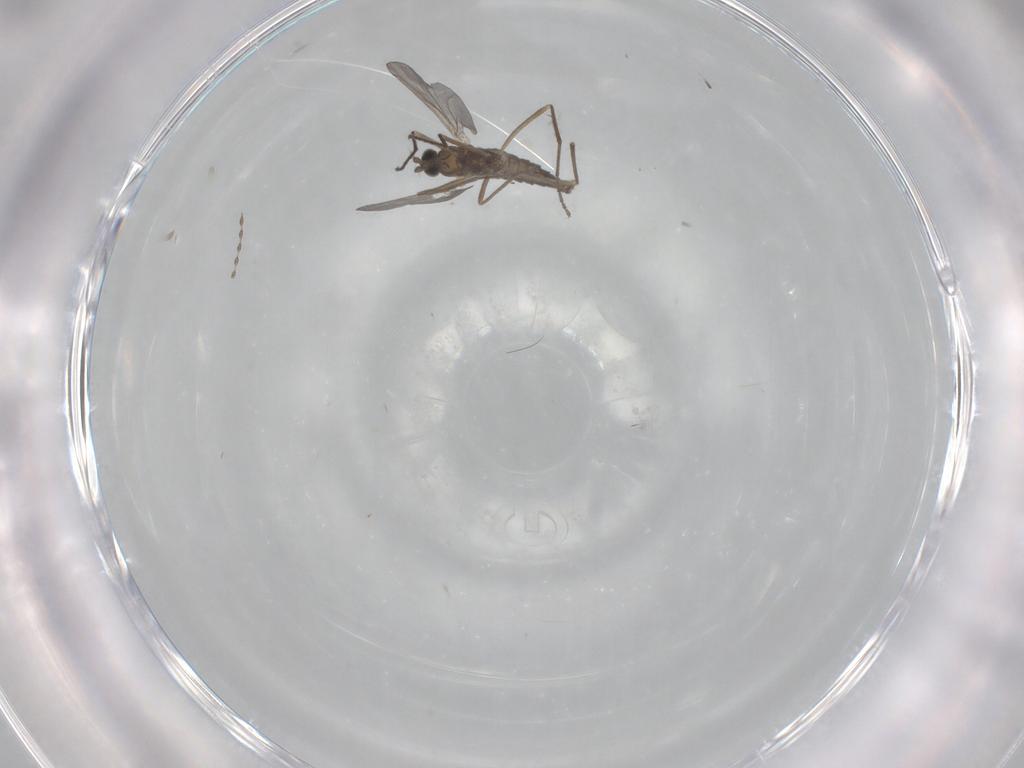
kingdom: Animalia
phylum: Arthropoda
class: Insecta
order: Diptera
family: Cecidomyiidae
